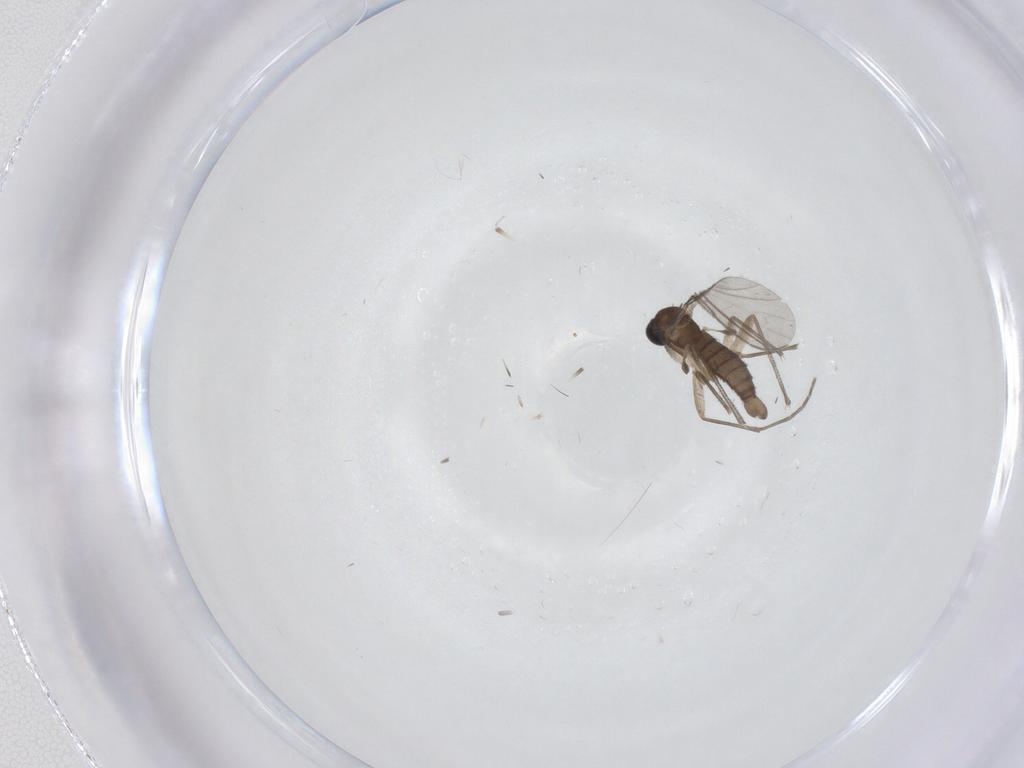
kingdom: Animalia
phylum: Arthropoda
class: Insecta
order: Diptera
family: Sciaridae
